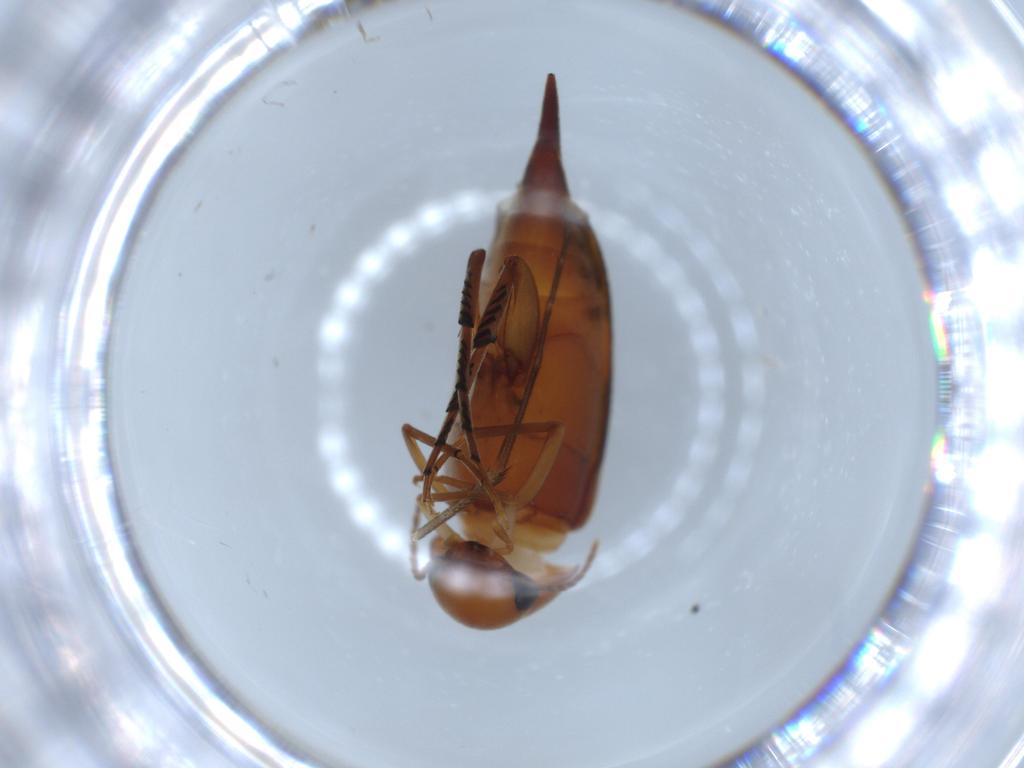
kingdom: Animalia
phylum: Arthropoda
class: Insecta
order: Coleoptera
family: Mordellidae
